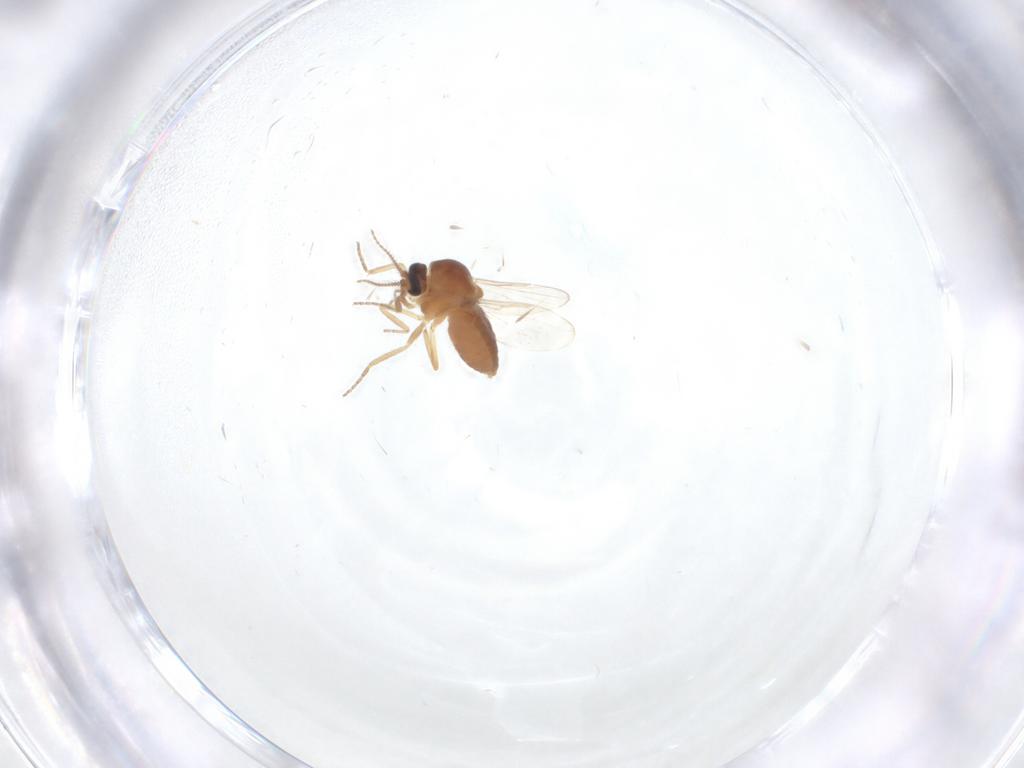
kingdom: Animalia
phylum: Arthropoda
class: Insecta
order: Diptera
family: Ceratopogonidae
